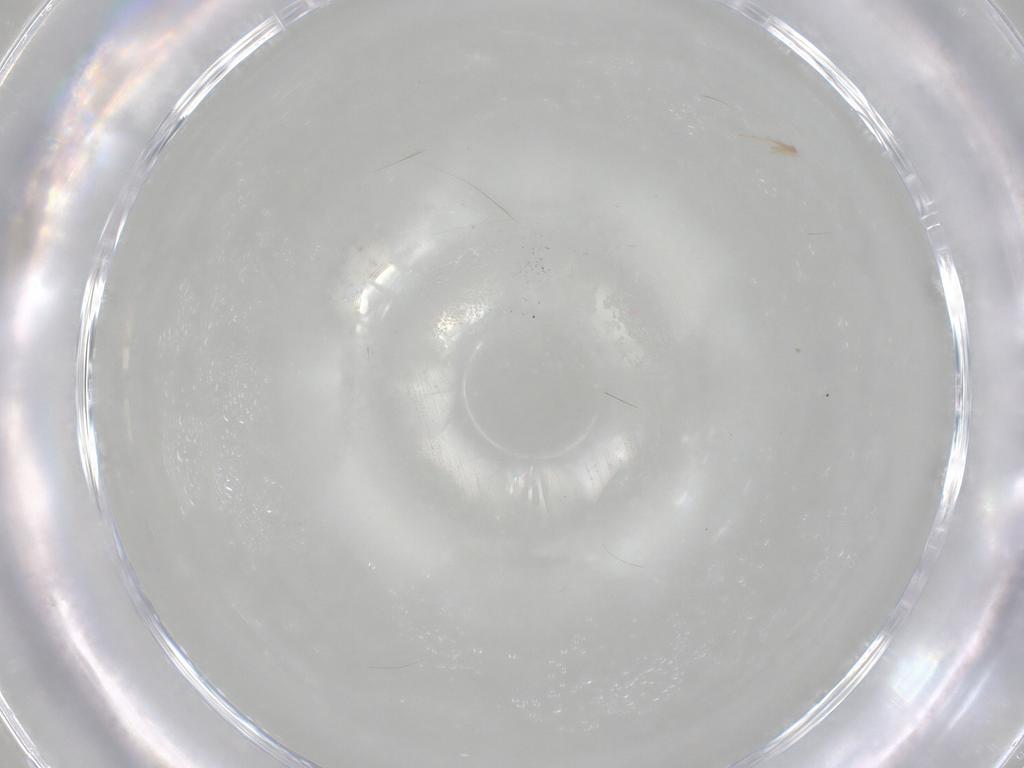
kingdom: Animalia
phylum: Arthropoda
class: Insecta
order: Hemiptera
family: Miridae
